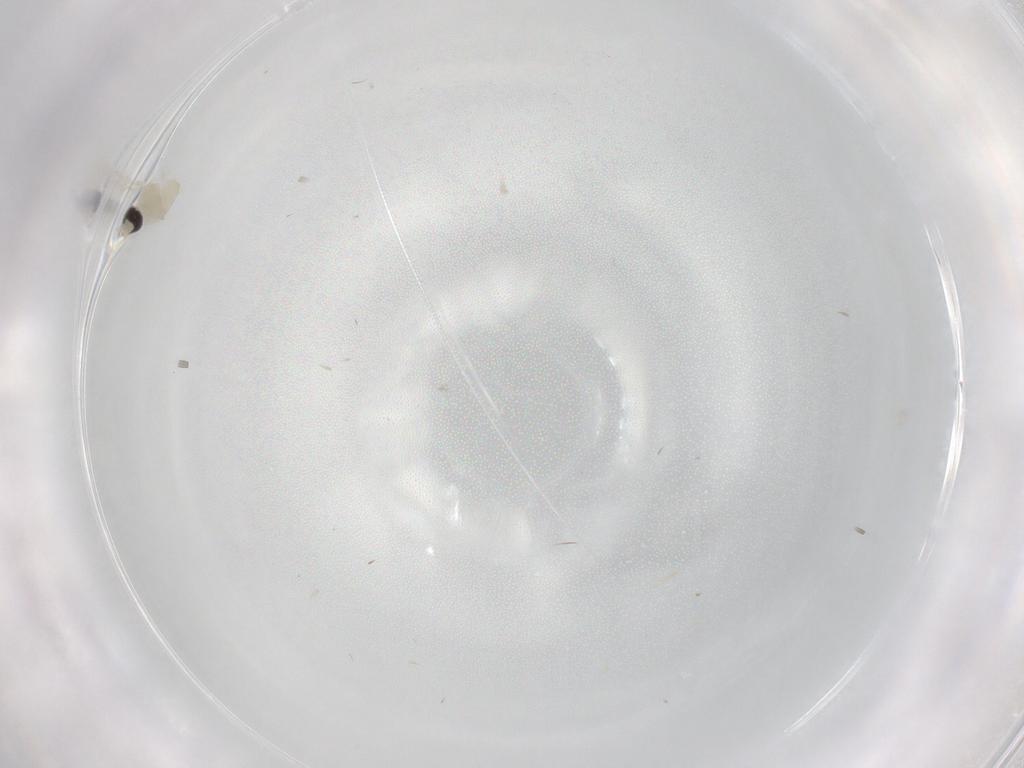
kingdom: Animalia
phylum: Arthropoda
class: Insecta
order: Diptera
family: Cecidomyiidae
